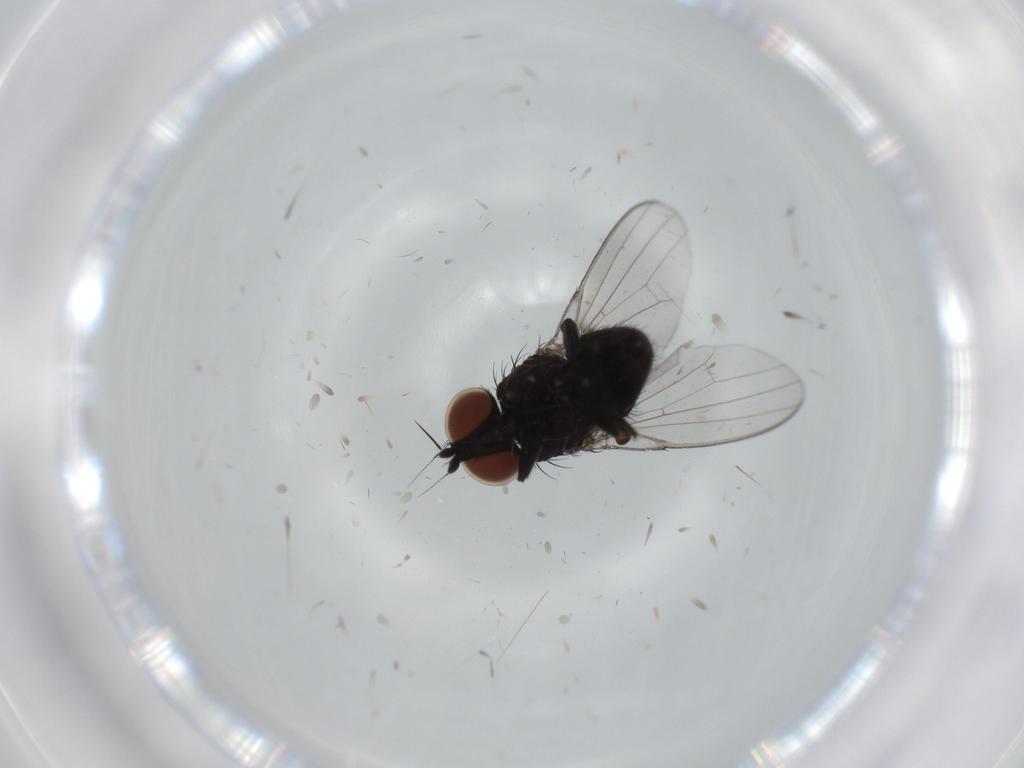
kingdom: Animalia
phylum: Arthropoda
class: Insecta
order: Diptera
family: Milichiidae
